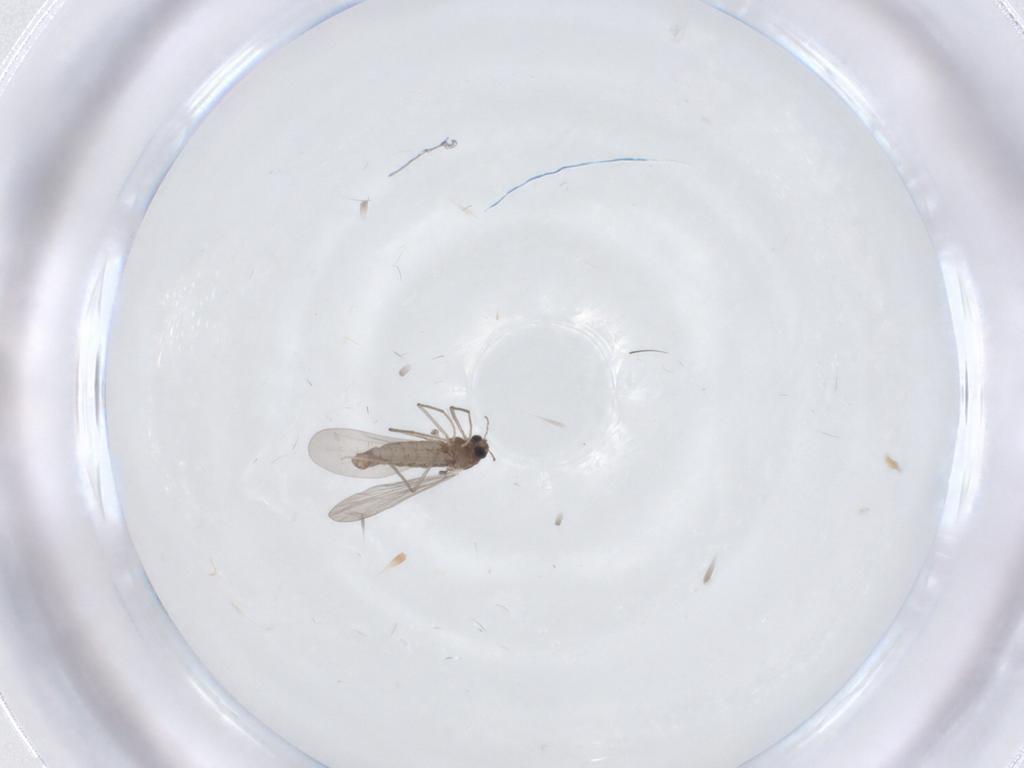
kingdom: Animalia
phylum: Arthropoda
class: Insecta
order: Diptera
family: Chironomidae
